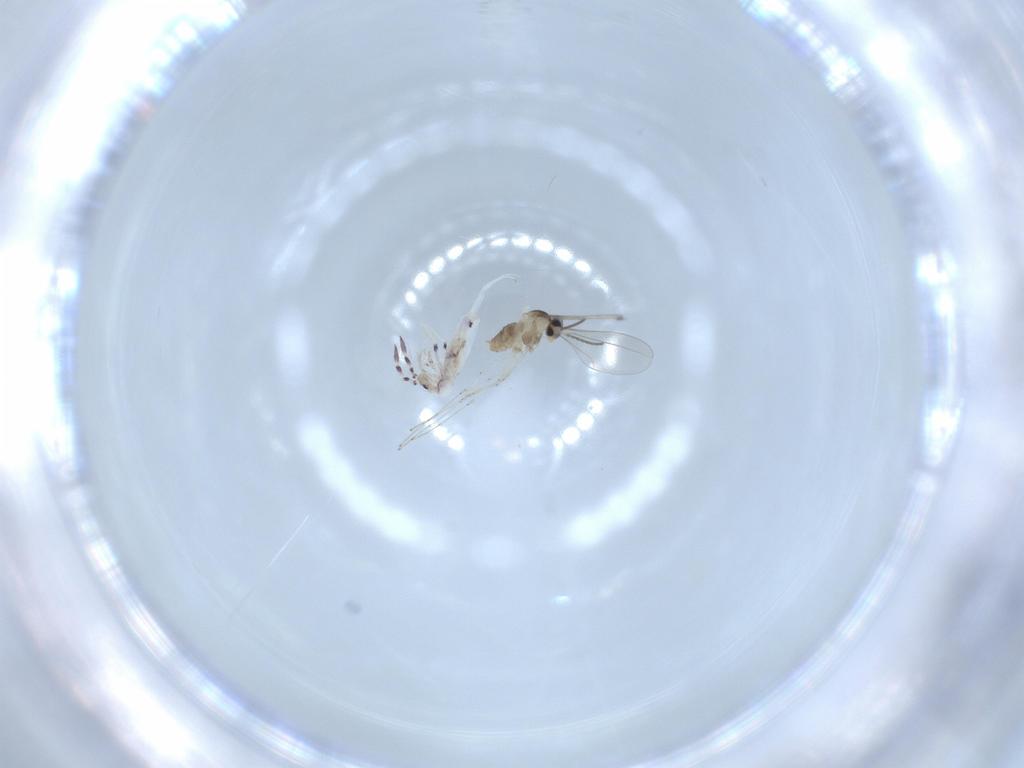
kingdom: Animalia
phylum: Arthropoda
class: Collembola
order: Entomobryomorpha
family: Entomobryidae
